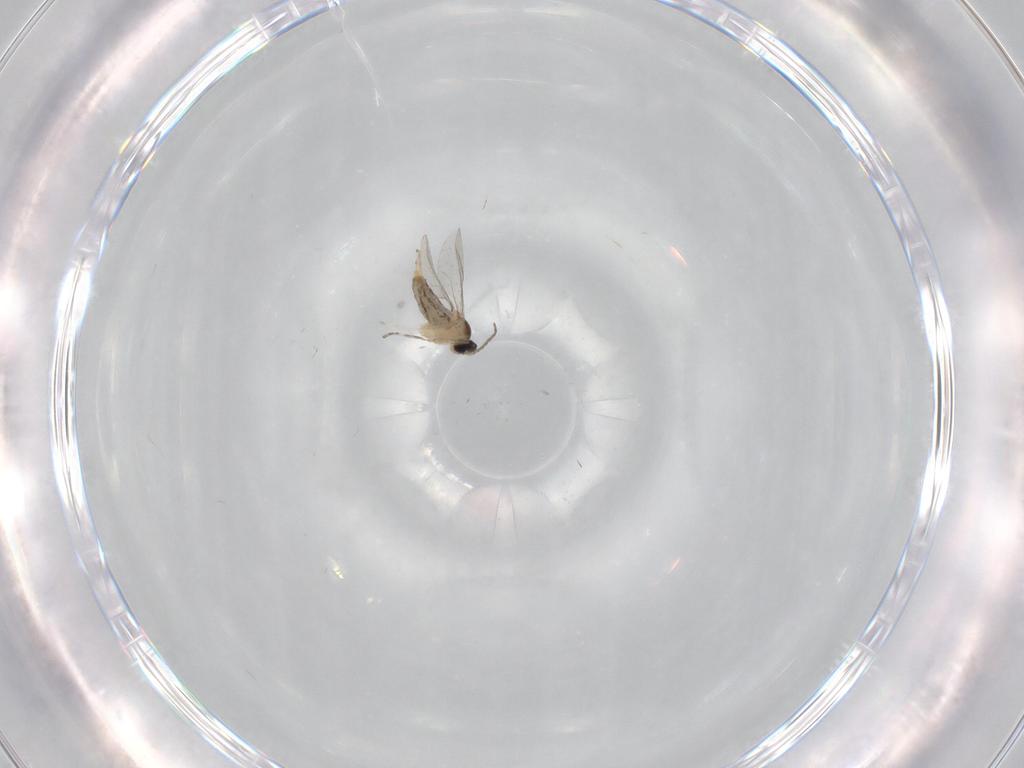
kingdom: Animalia
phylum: Arthropoda
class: Insecta
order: Diptera
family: Cecidomyiidae
